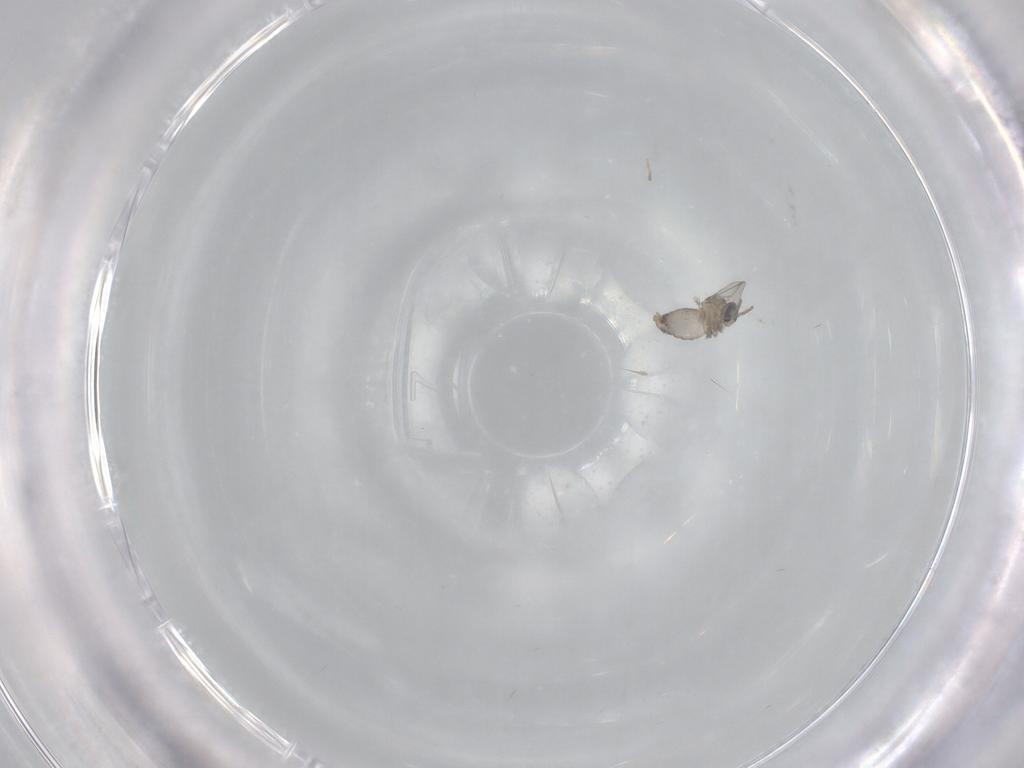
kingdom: Animalia
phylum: Arthropoda
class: Insecta
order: Diptera
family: Cecidomyiidae
